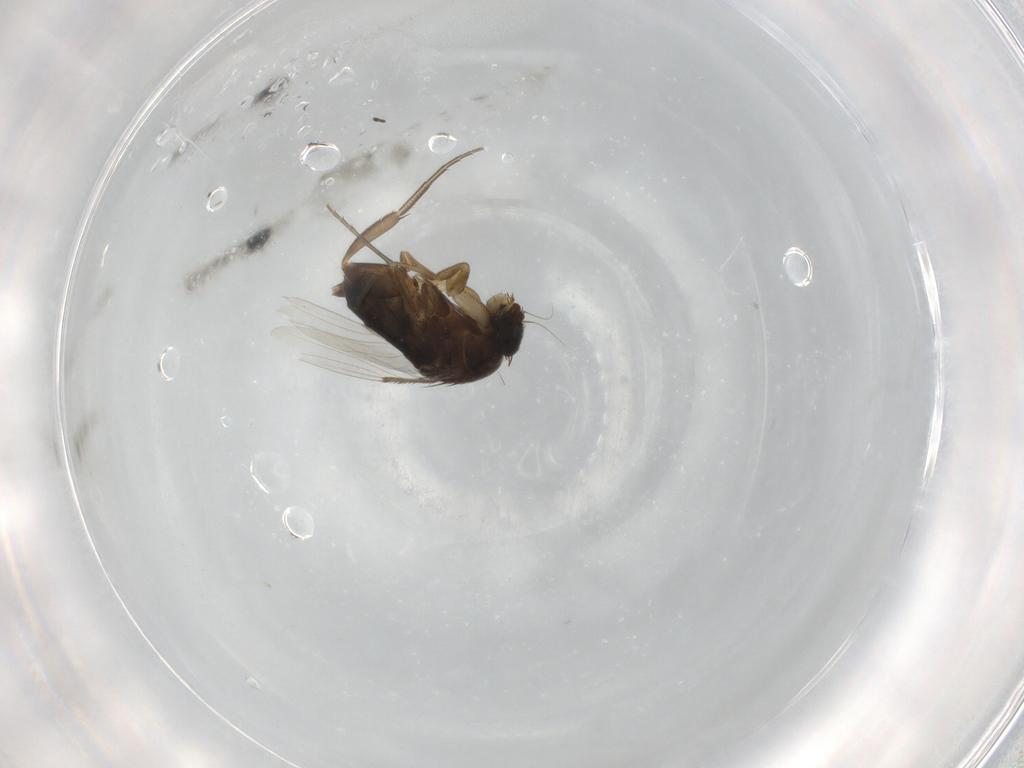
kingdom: Animalia
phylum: Arthropoda
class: Insecta
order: Diptera
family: Phoridae
